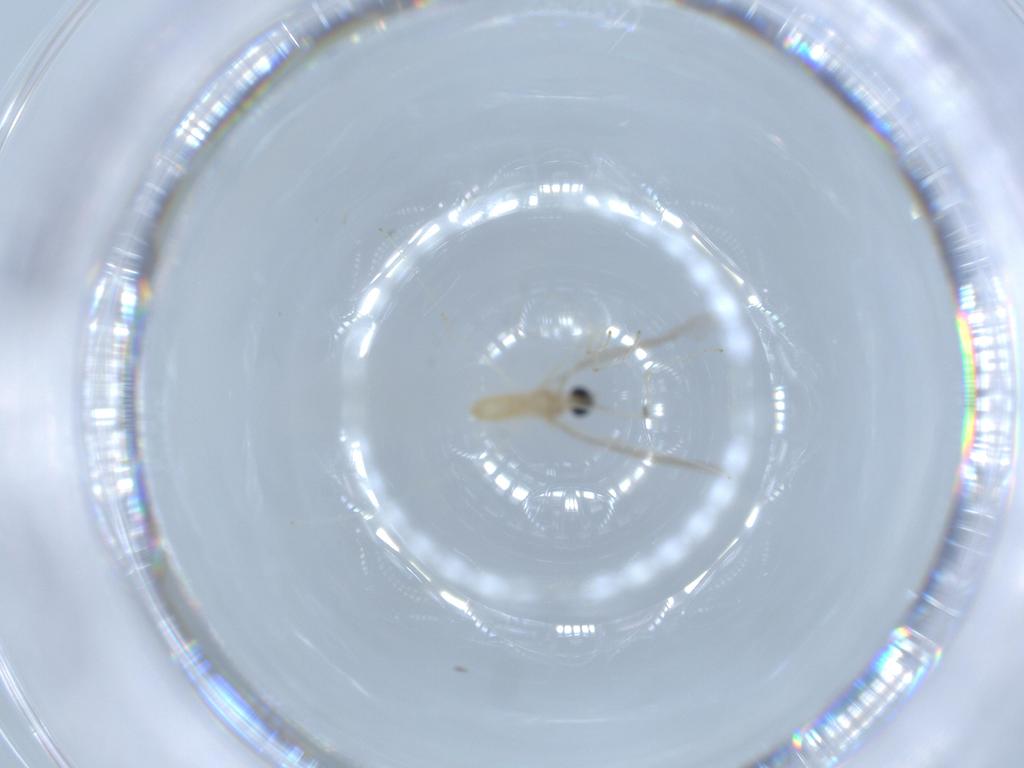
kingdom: Animalia
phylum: Arthropoda
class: Insecta
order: Diptera
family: Cecidomyiidae
